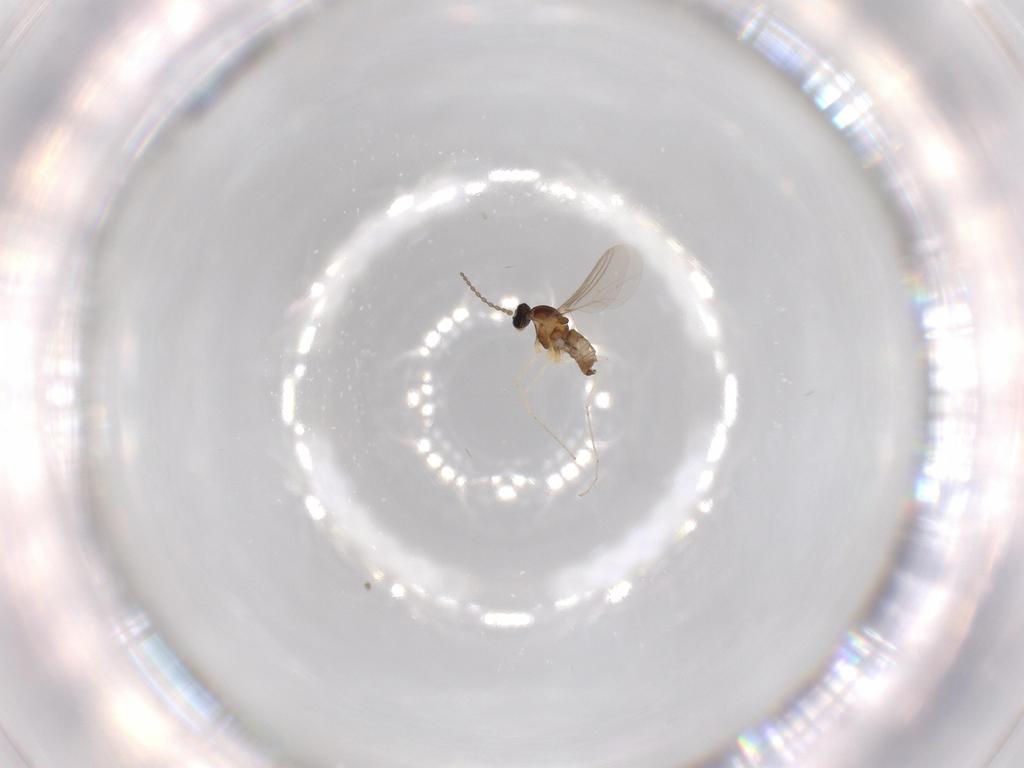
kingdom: Animalia
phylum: Arthropoda
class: Insecta
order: Diptera
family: Cecidomyiidae
